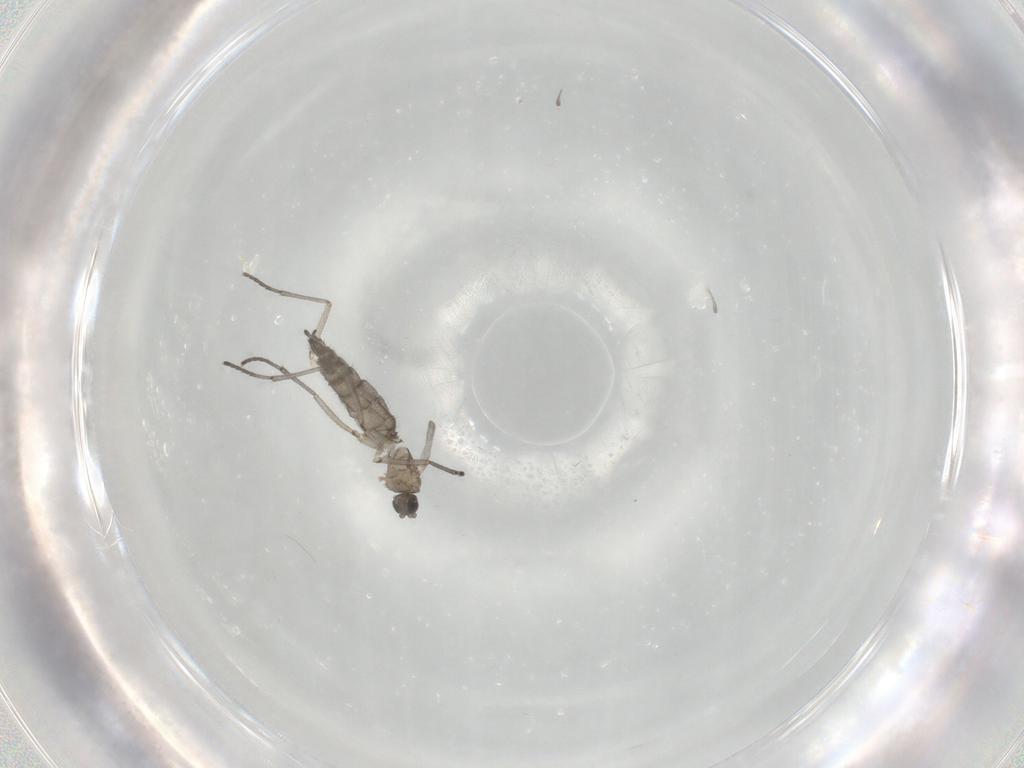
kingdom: Animalia
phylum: Arthropoda
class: Insecta
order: Diptera
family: Sciaridae
